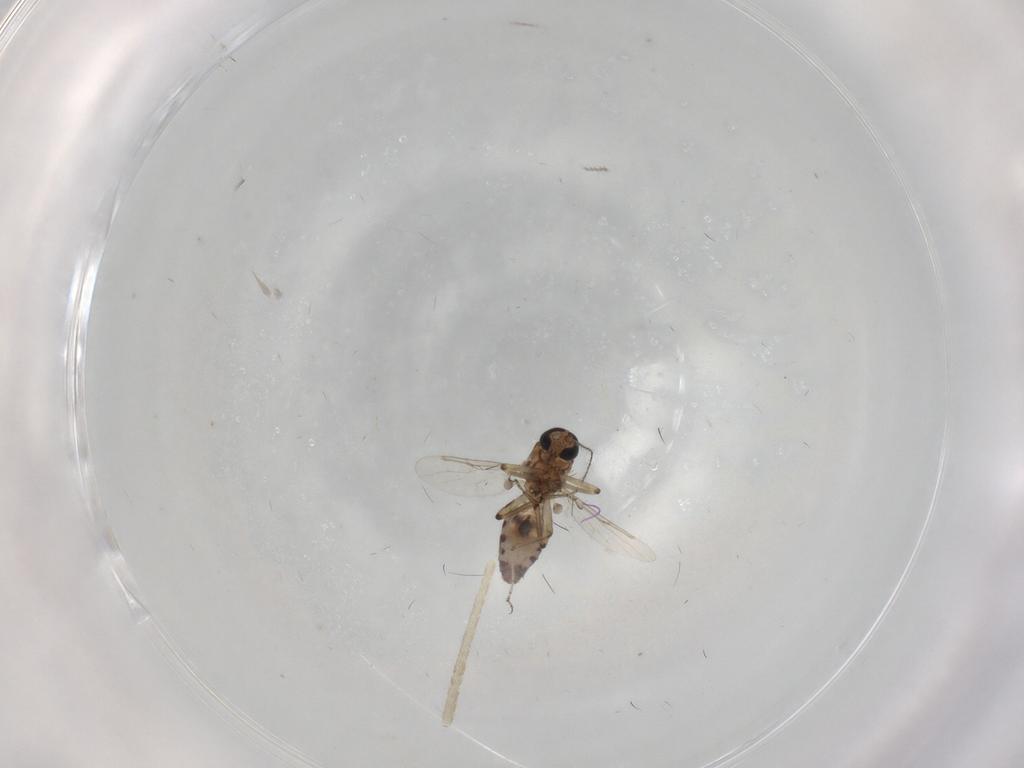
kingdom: Animalia
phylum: Arthropoda
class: Insecta
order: Diptera
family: Ceratopogonidae
